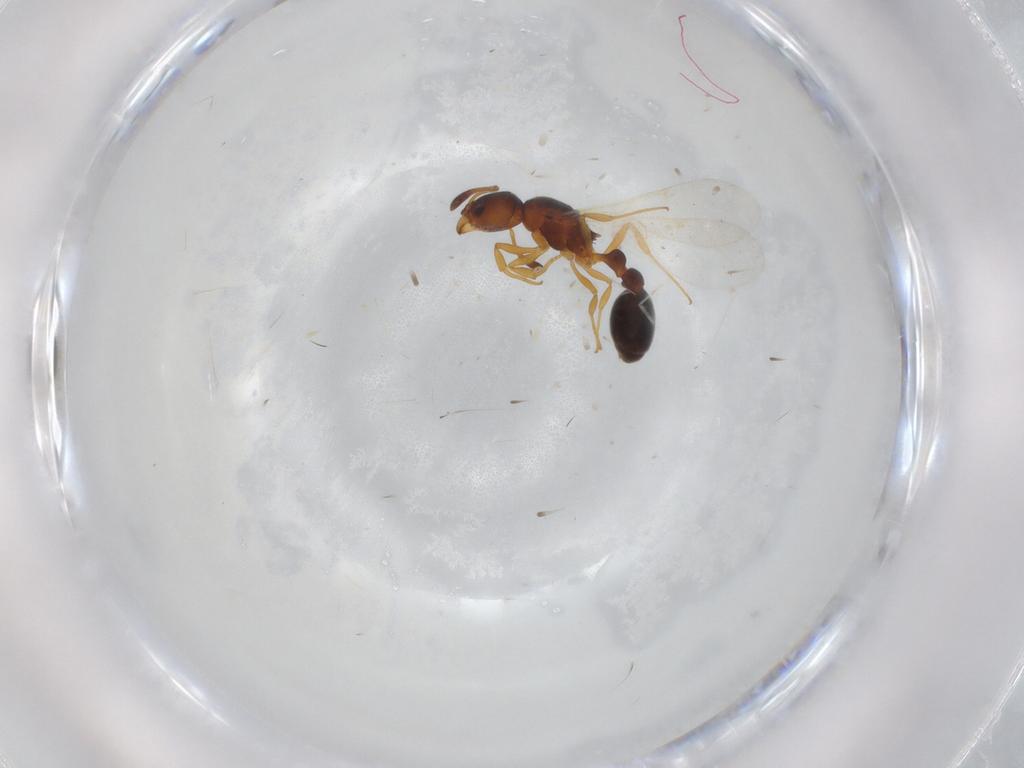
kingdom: Animalia
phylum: Arthropoda
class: Insecta
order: Hymenoptera
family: Formicidae
